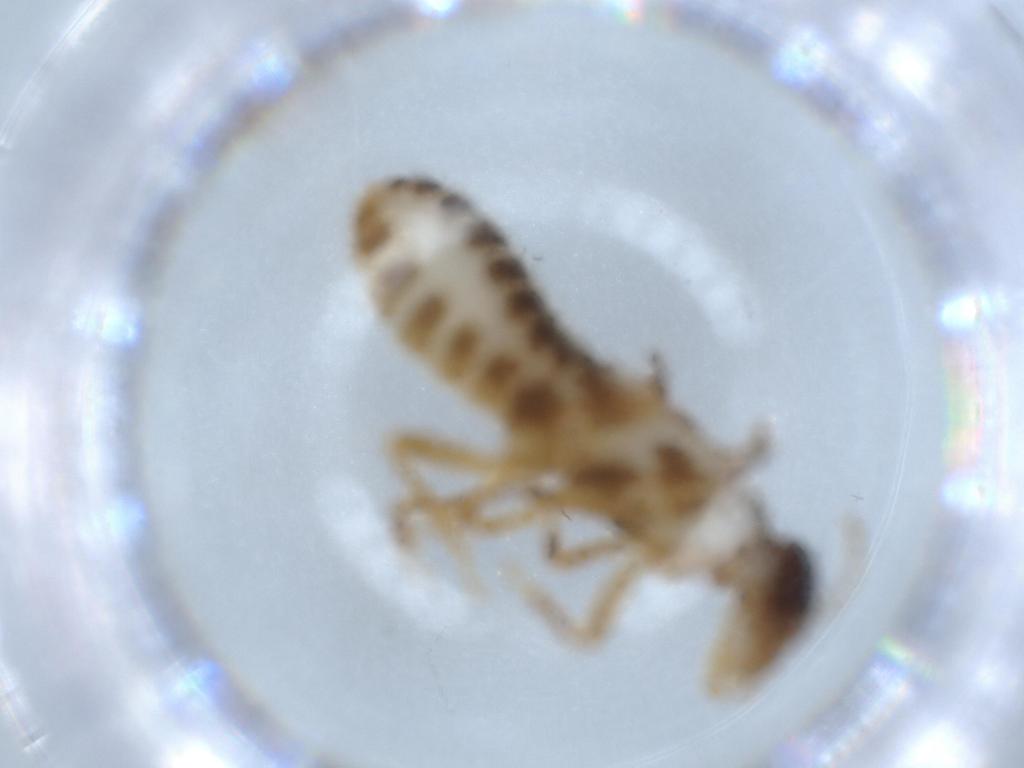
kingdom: Animalia
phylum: Arthropoda
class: Insecta
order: Blattodea
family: Termitidae
